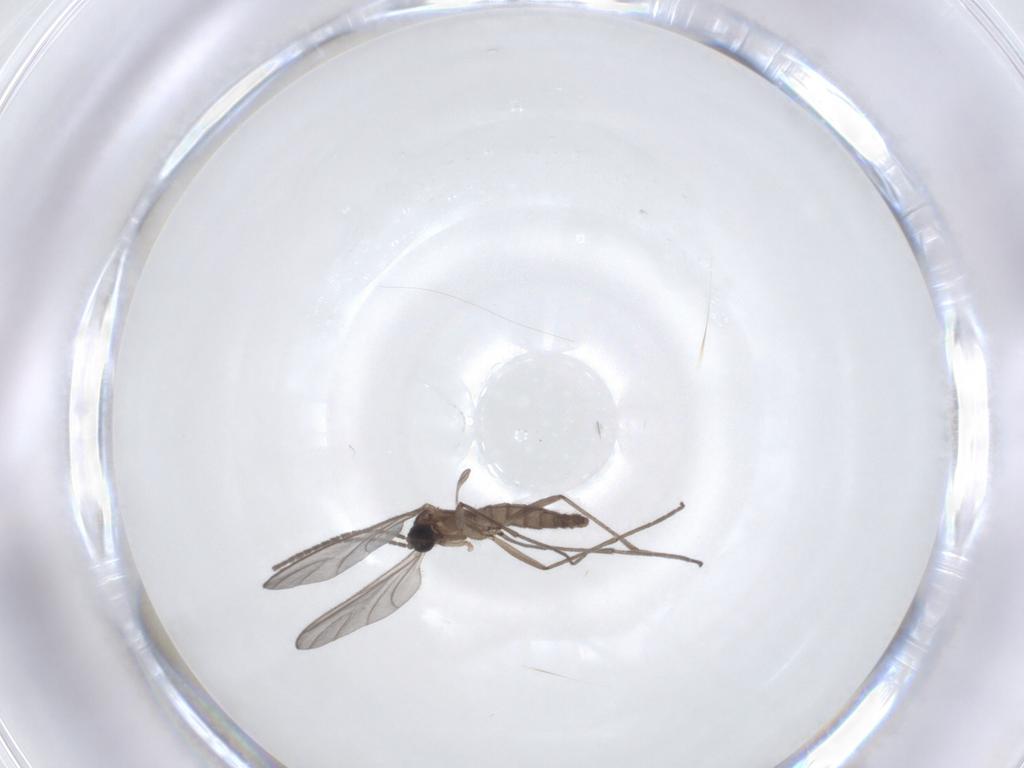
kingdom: Animalia
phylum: Arthropoda
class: Insecta
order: Diptera
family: Sciaridae
